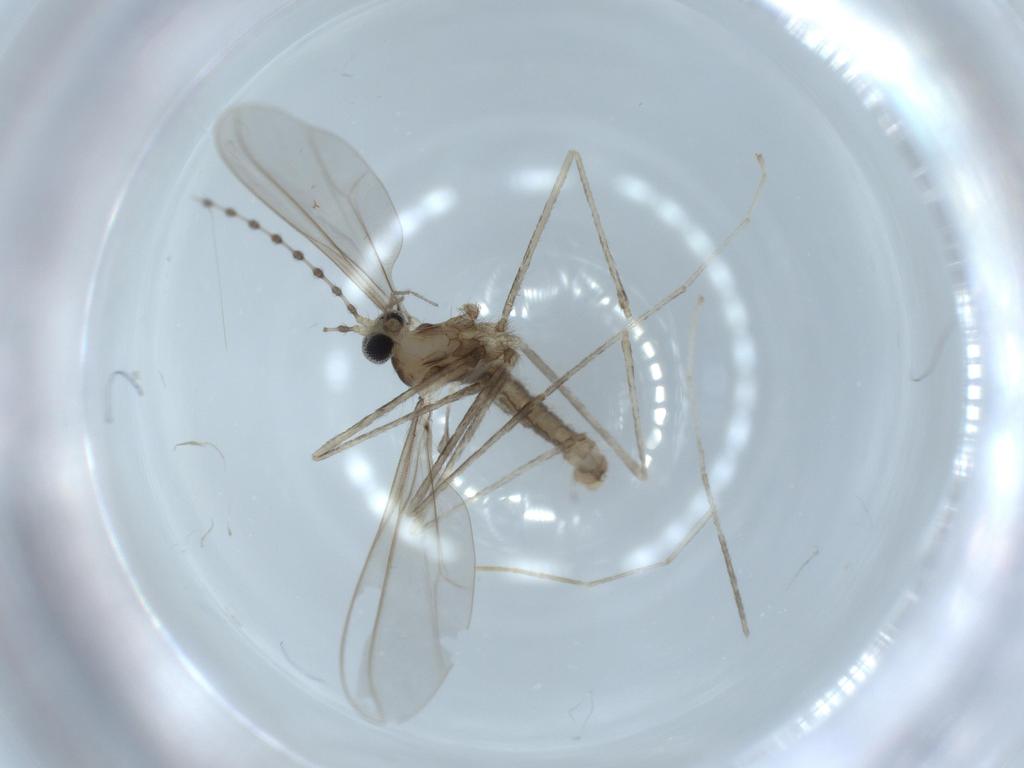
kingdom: Animalia
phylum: Arthropoda
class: Insecta
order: Diptera
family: Cecidomyiidae
